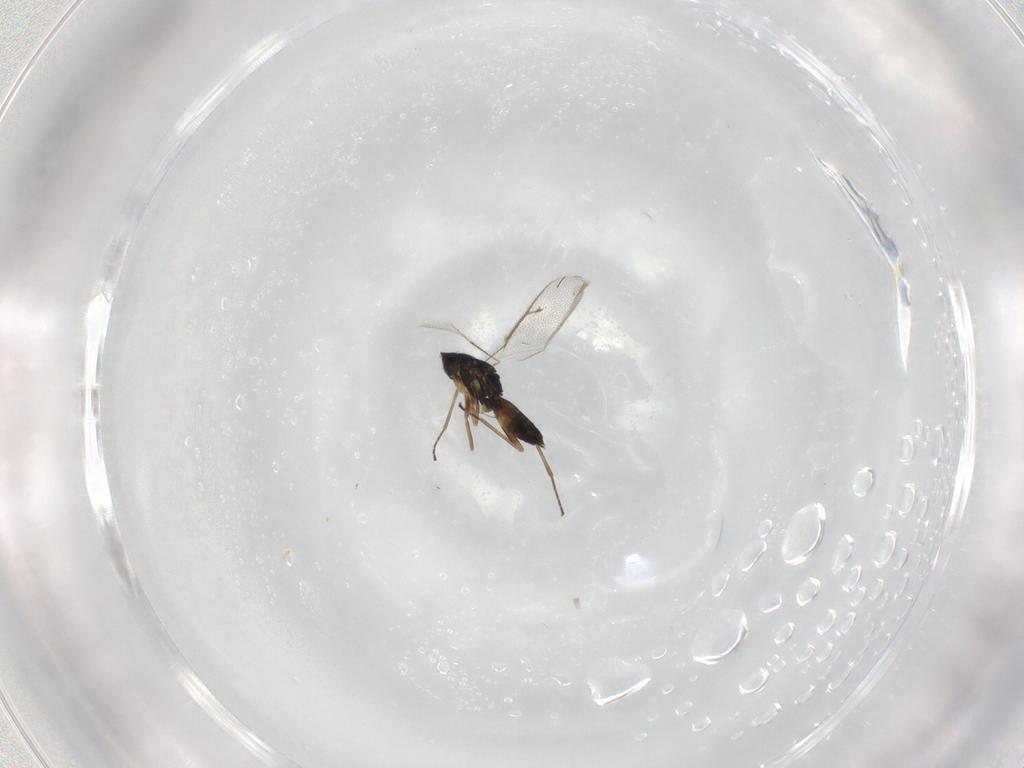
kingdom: Animalia
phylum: Arthropoda
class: Insecta
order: Hymenoptera
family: Eulophidae
